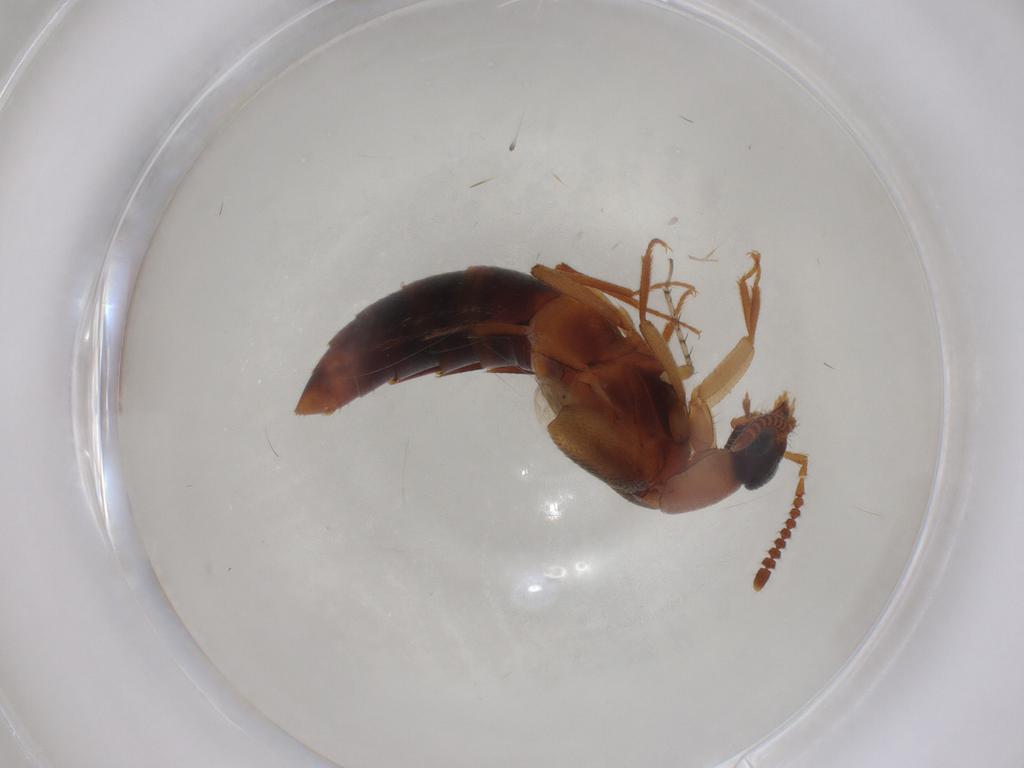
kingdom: Animalia
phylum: Arthropoda
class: Insecta
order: Coleoptera
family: Staphylinidae
